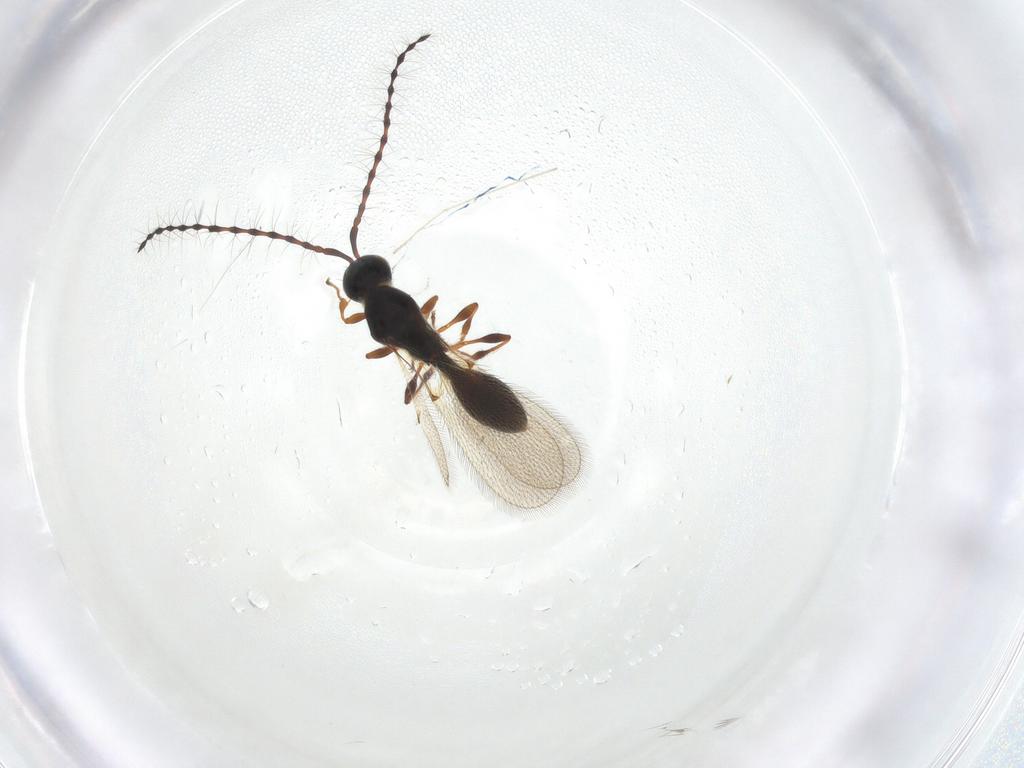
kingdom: Animalia
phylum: Arthropoda
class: Insecta
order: Hymenoptera
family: Diapriidae
